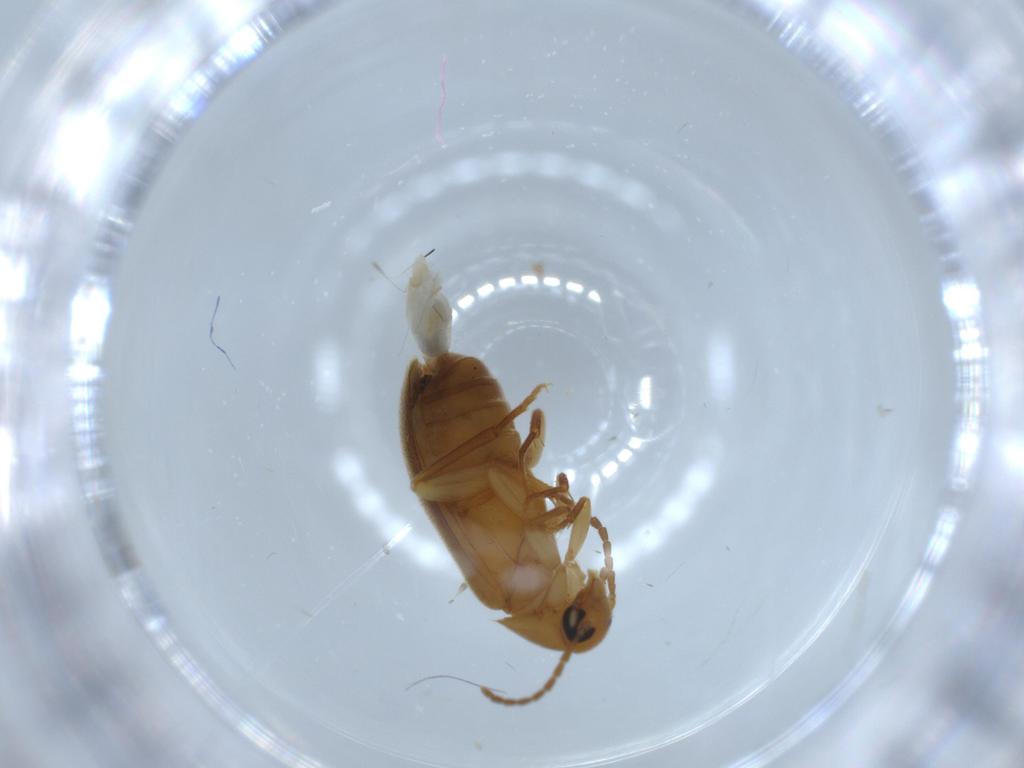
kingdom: Animalia
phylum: Arthropoda
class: Insecta
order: Coleoptera
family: Scraptiidae
